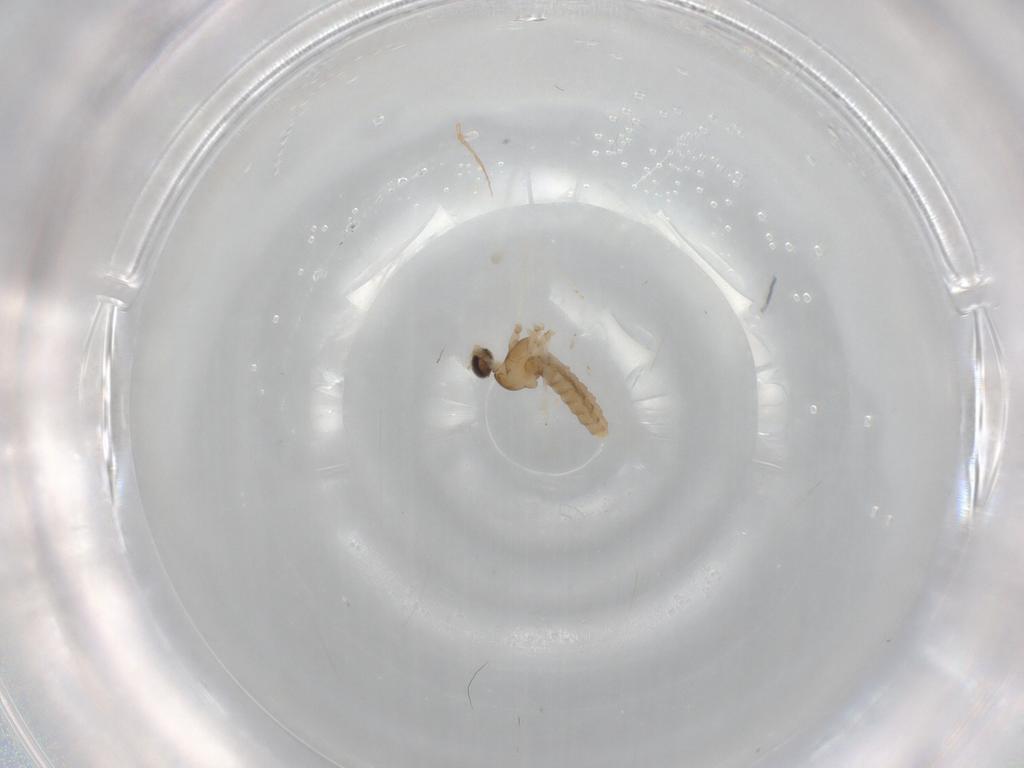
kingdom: Animalia
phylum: Arthropoda
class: Insecta
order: Diptera
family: Cecidomyiidae
